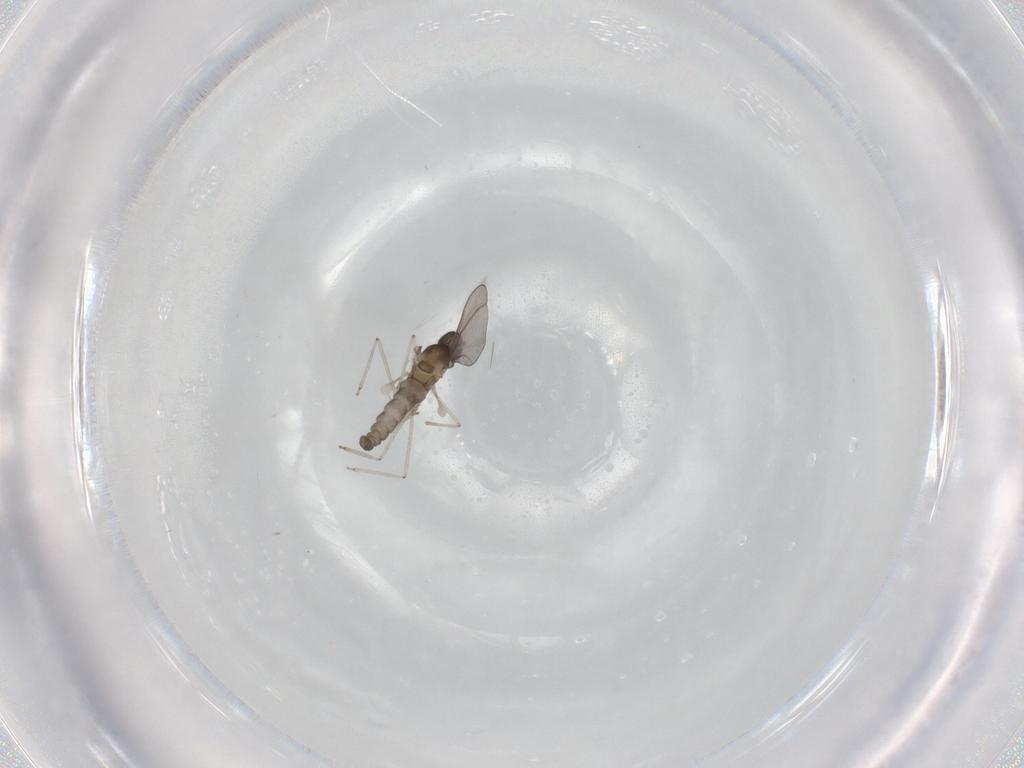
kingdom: Animalia
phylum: Arthropoda
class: Insecta
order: Diptera
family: Cecidomyiidae
